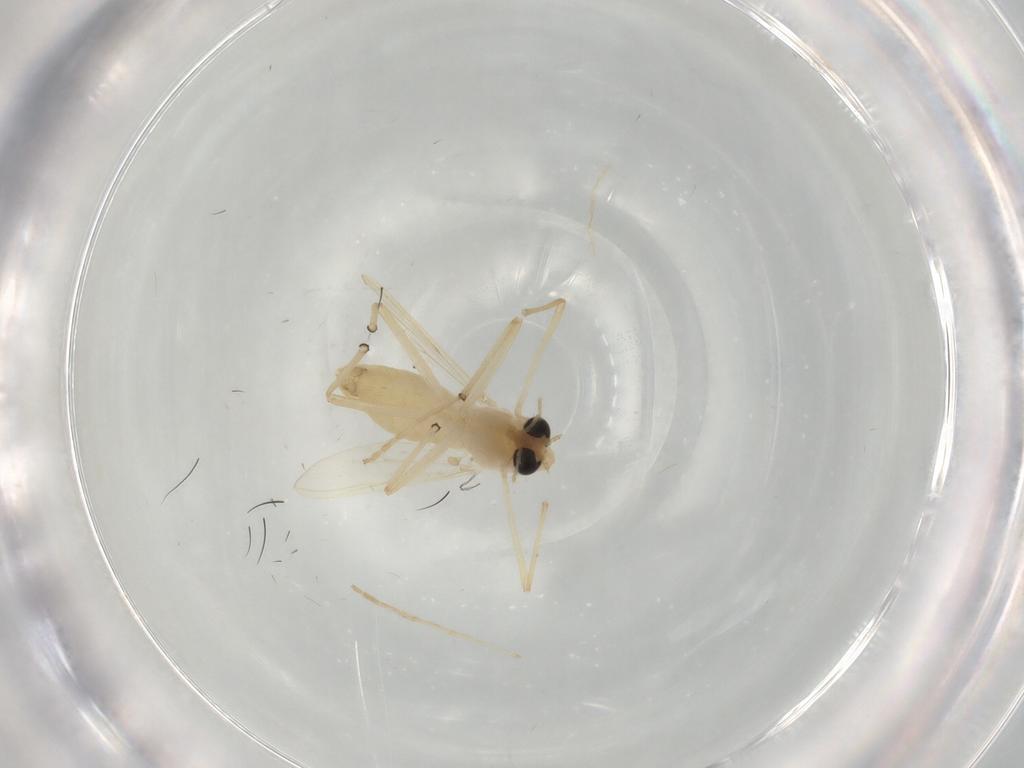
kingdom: Animalia
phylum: Arthropoda
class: Insecta
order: Diptera
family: Chironomidae
